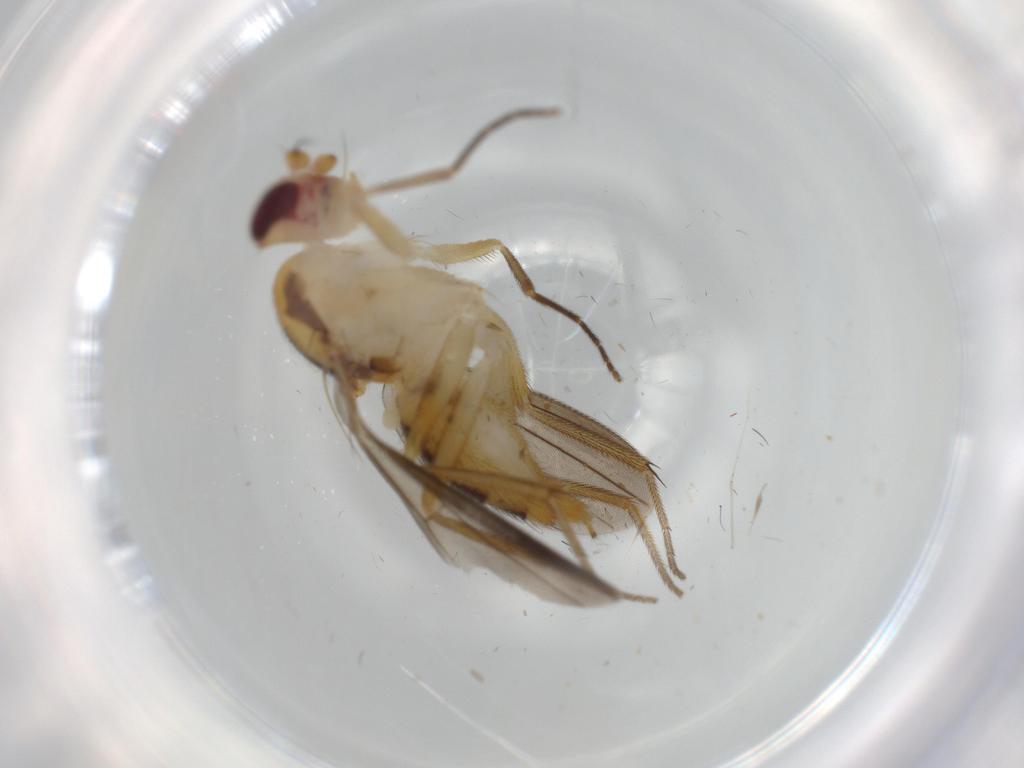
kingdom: Animalia
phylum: Arthropoda
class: Insecta
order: Diptera
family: Clusiidae
